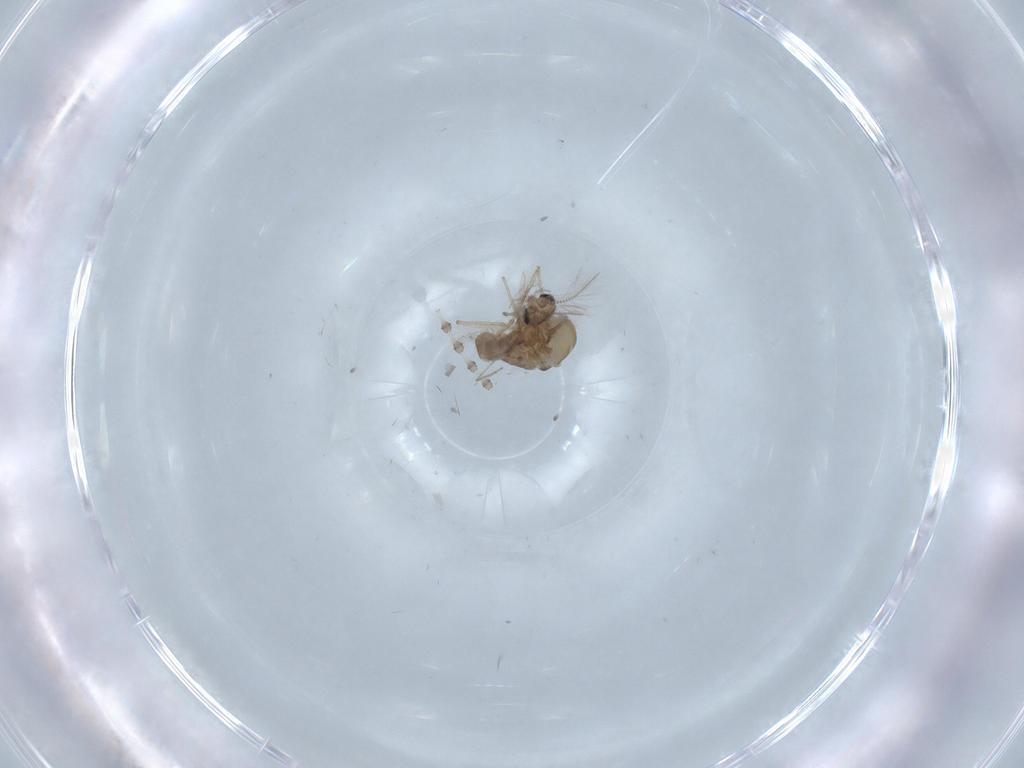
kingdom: Animalia
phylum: Arthropoda
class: Insecta
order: Diptera
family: Chironomidae
